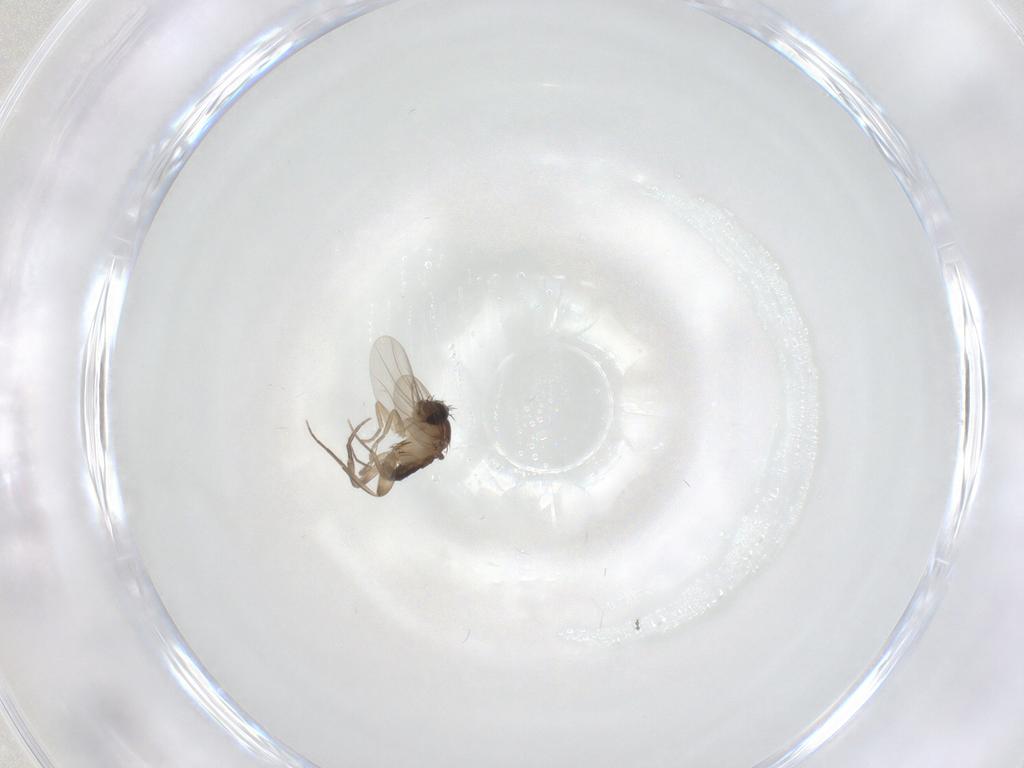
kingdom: Animalia
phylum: Arthropoda
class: Insecta
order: Diptera
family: Phoridae
